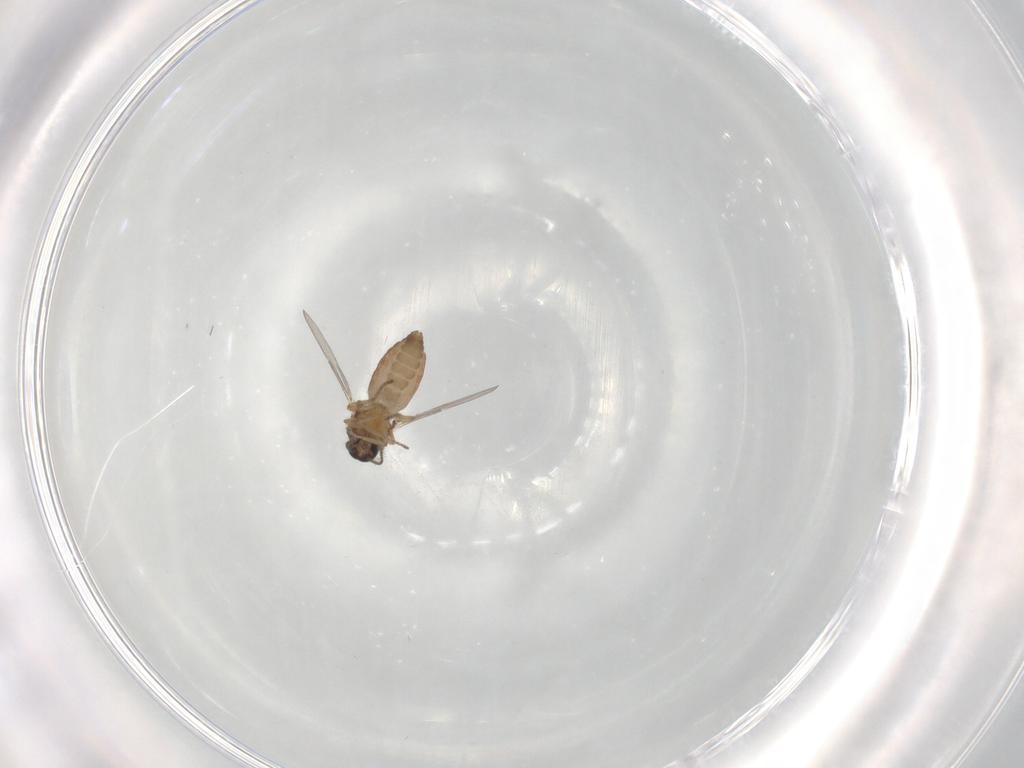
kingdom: Animalia
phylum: Arthropoda
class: Insecta
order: Diptera
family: Ceratopogonidae
